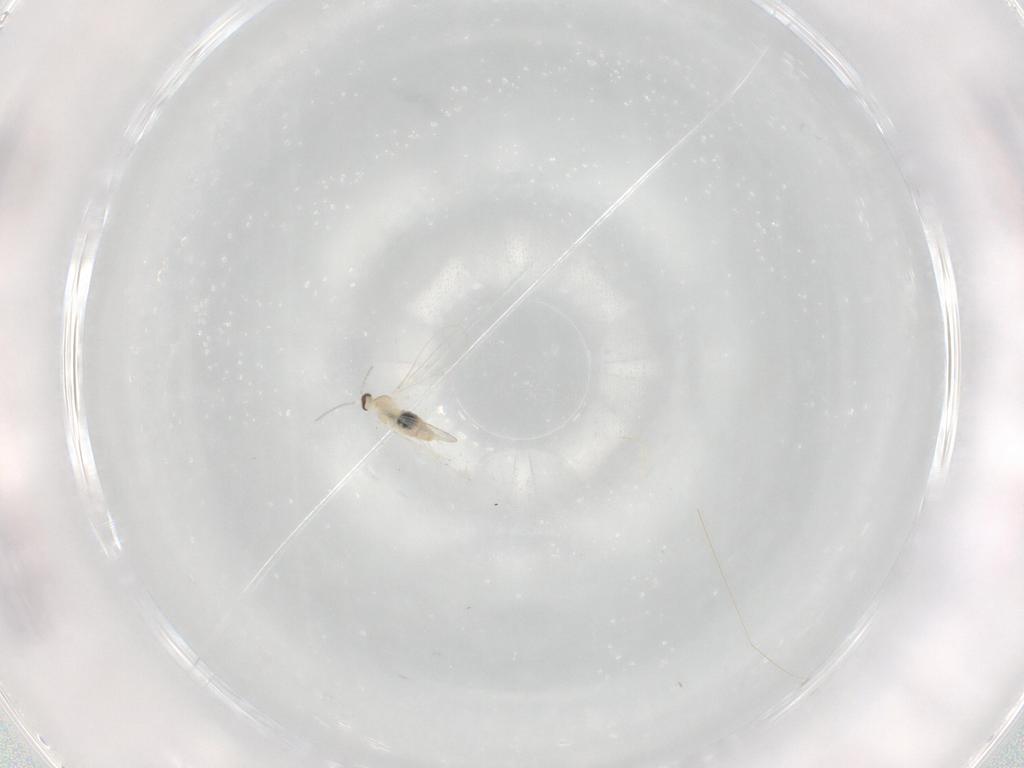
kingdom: Animalia
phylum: Arthropoda
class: Insecta
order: Diptera
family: Cecidomyiidae
